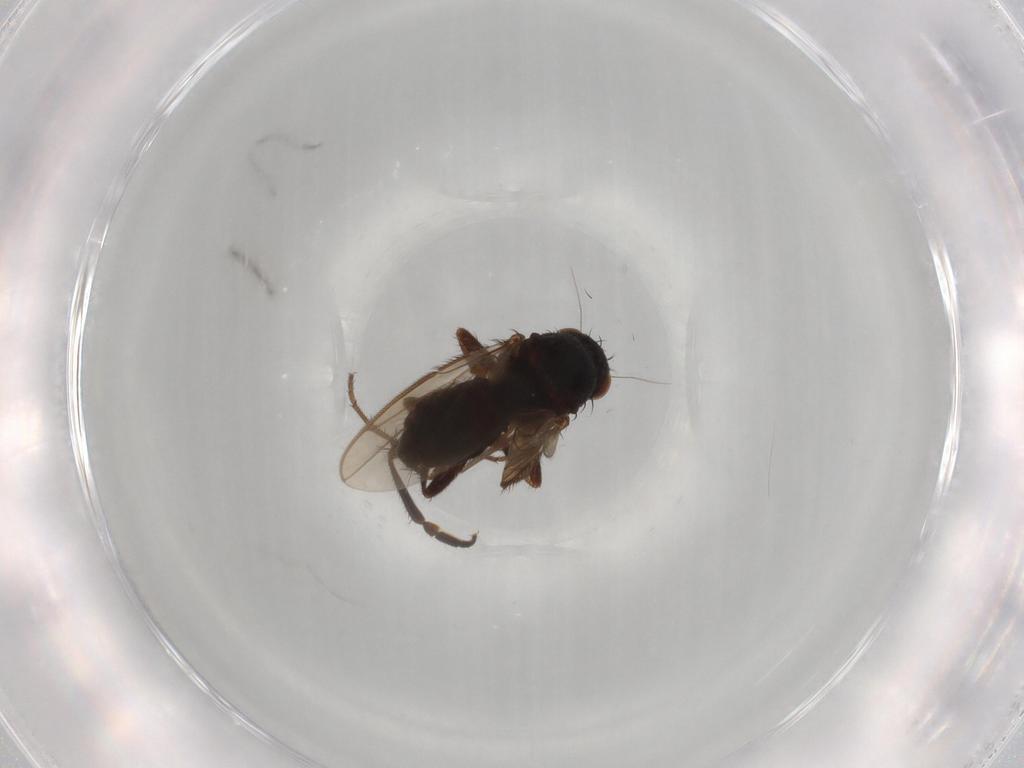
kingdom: Animalia
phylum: Arthropoda
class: Insecta
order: Diptera
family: Sphaeroceridae
